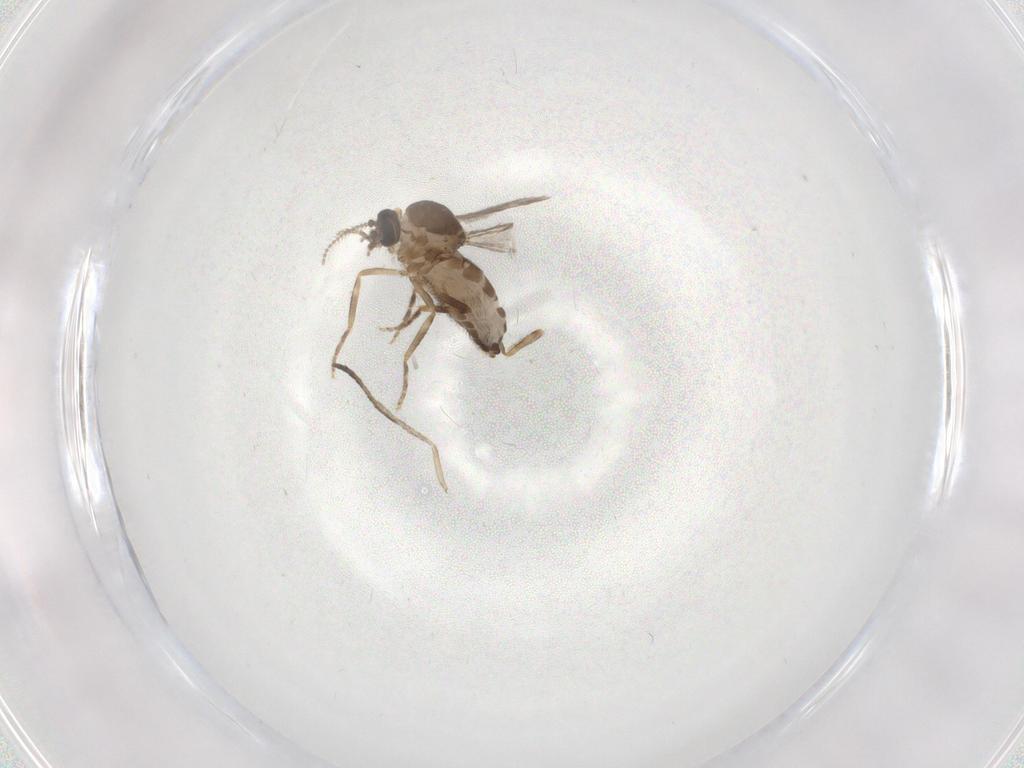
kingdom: Animalia
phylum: Arthropoda
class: Insecta
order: Diptera
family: Ceratopogonidae
